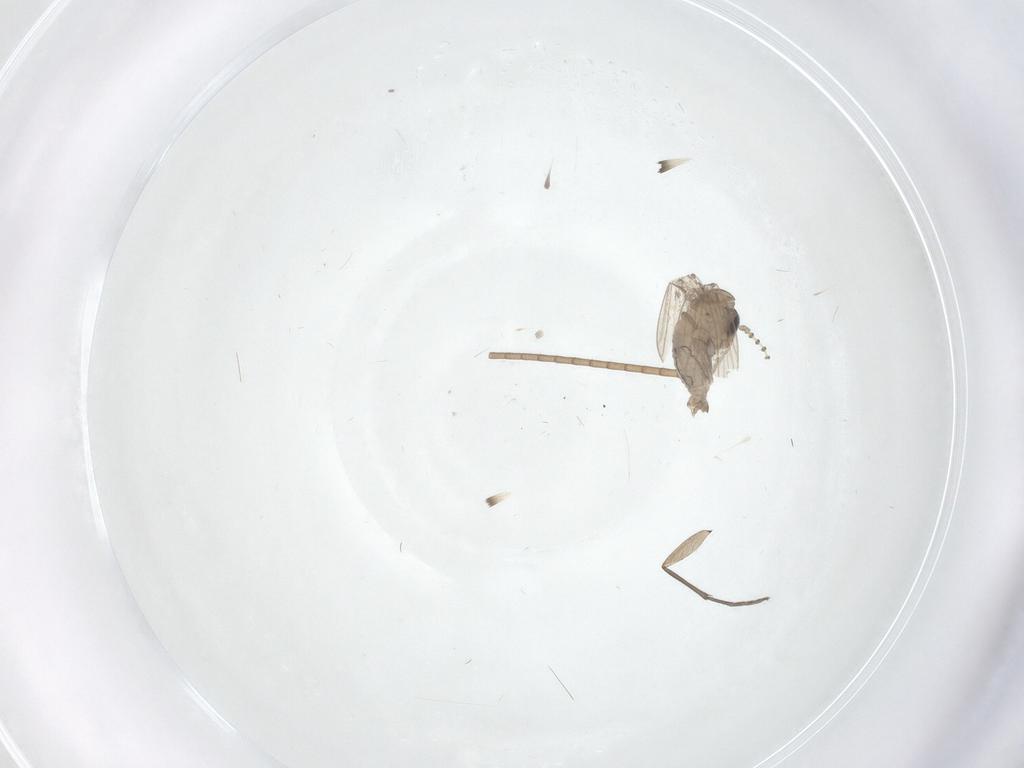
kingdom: Animalia
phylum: Arthropoda
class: Insecta
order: Diptera
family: Psychodidae
